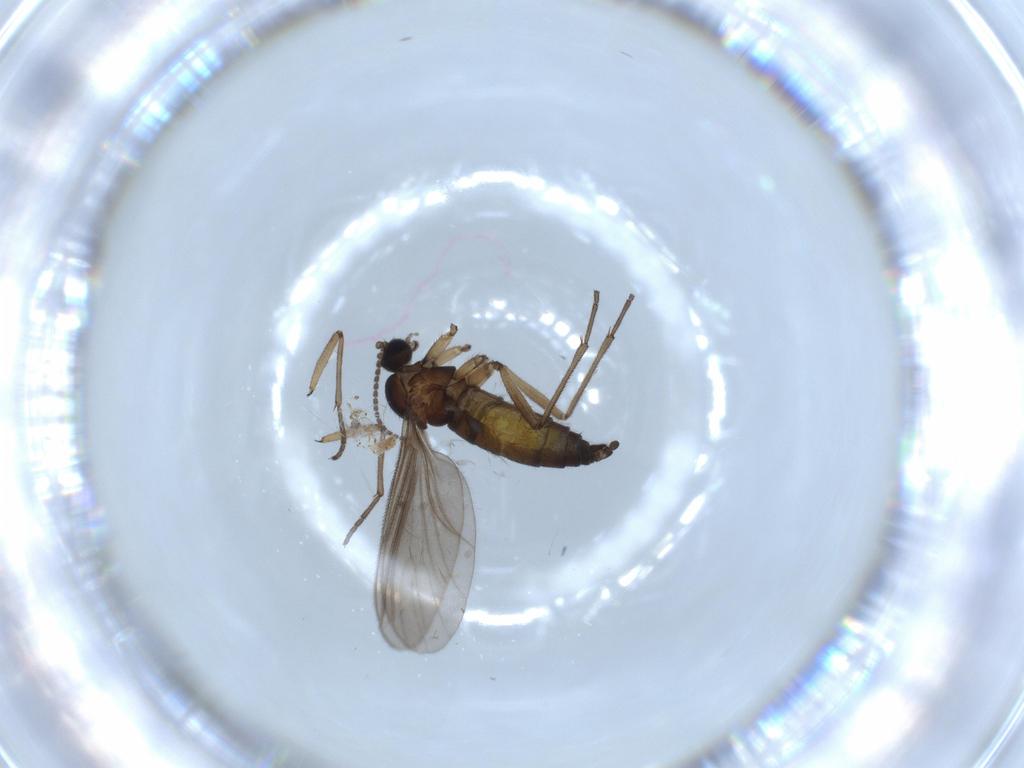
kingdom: Animalia
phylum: Arthropoda
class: Insecta
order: Diptera
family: Sciaridae
